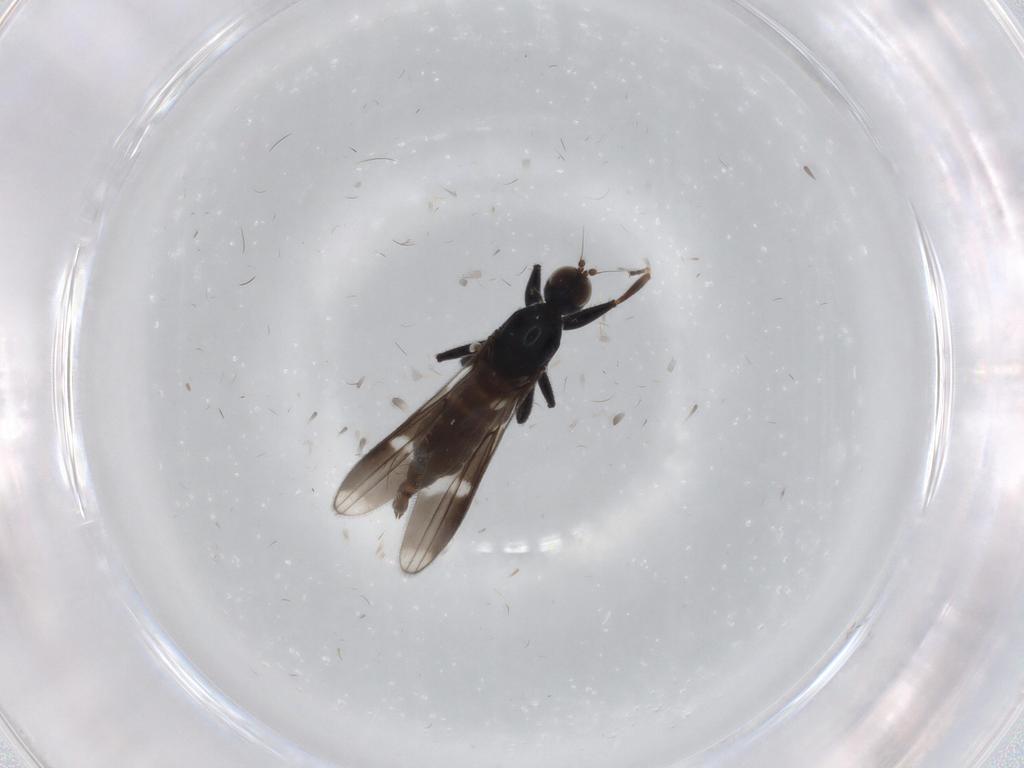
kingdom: Animalia
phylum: Arthropoda
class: Insecta
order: Diptera
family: Hybotidae
